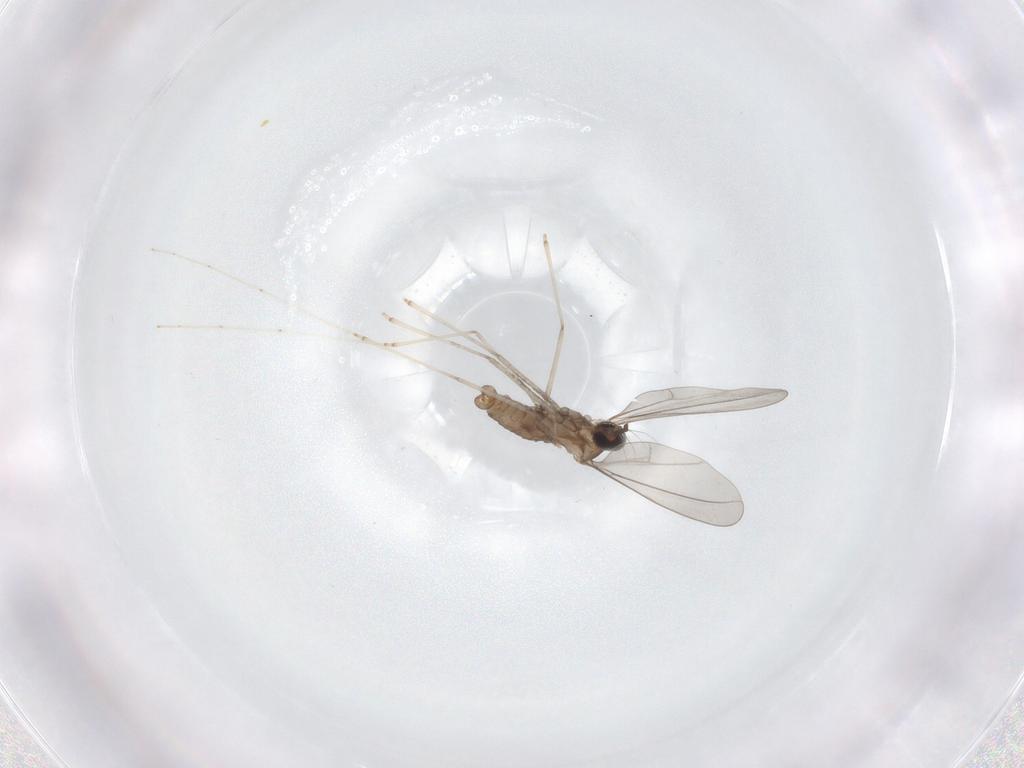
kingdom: Animalia
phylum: Arthropoda
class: Insecta
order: Diptera
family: Cecidomyiidae
